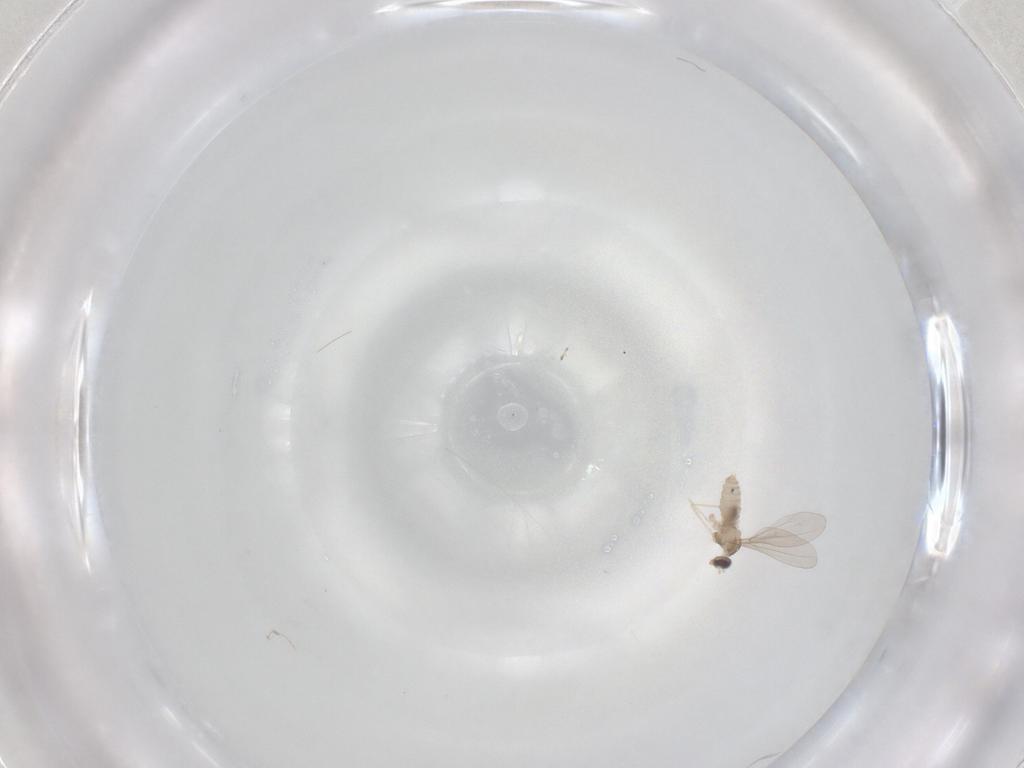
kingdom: Animalia
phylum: Arthropoda
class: Insecta
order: Diptera
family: Cecidomyiidae
